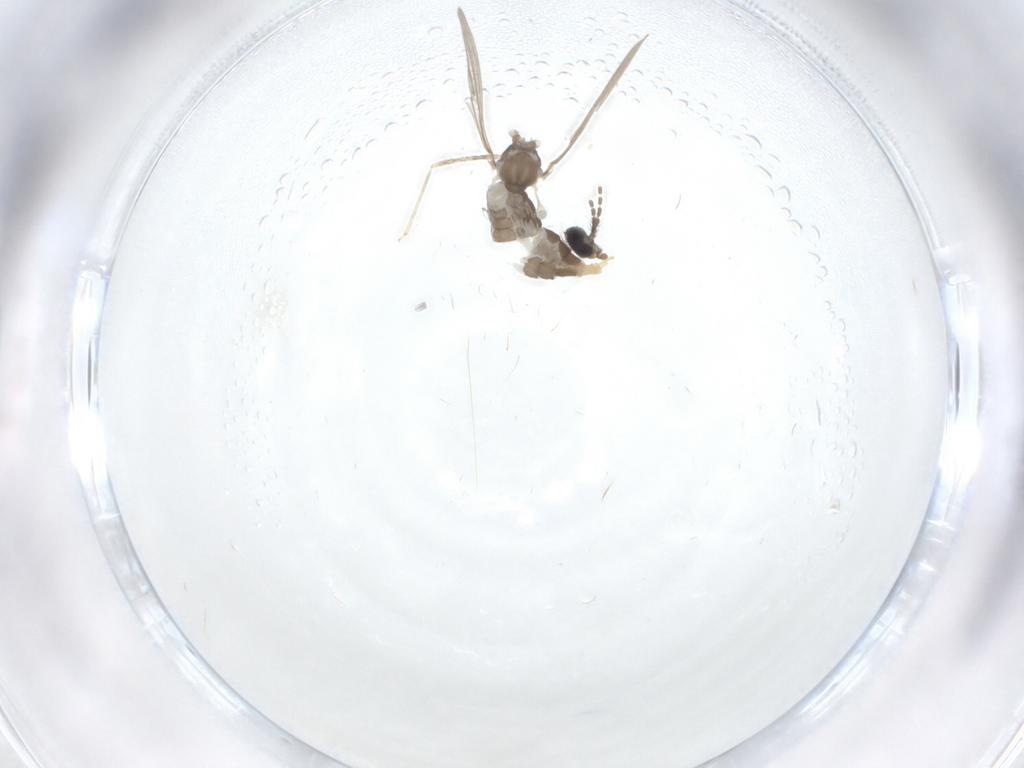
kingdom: Animalia
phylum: Arthropoda
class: Insecta
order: Diptera
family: Cecidomyiidae
